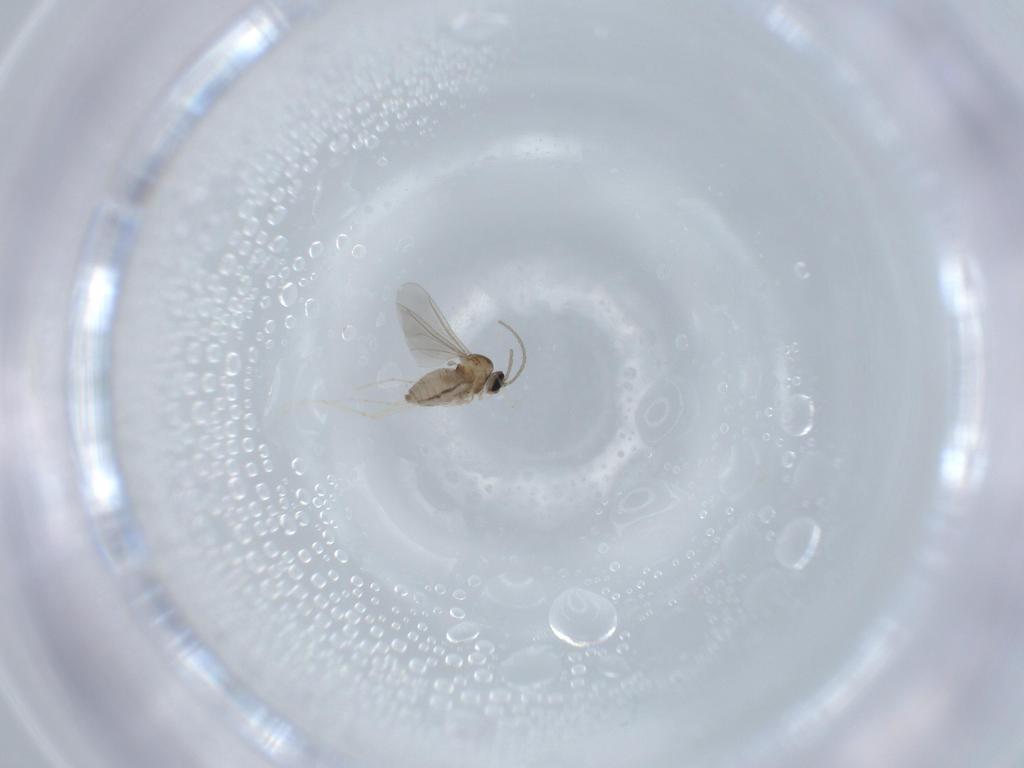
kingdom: Animalia
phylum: Arthropoda
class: Insecta
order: Diptera
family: Cecidomyiidae
